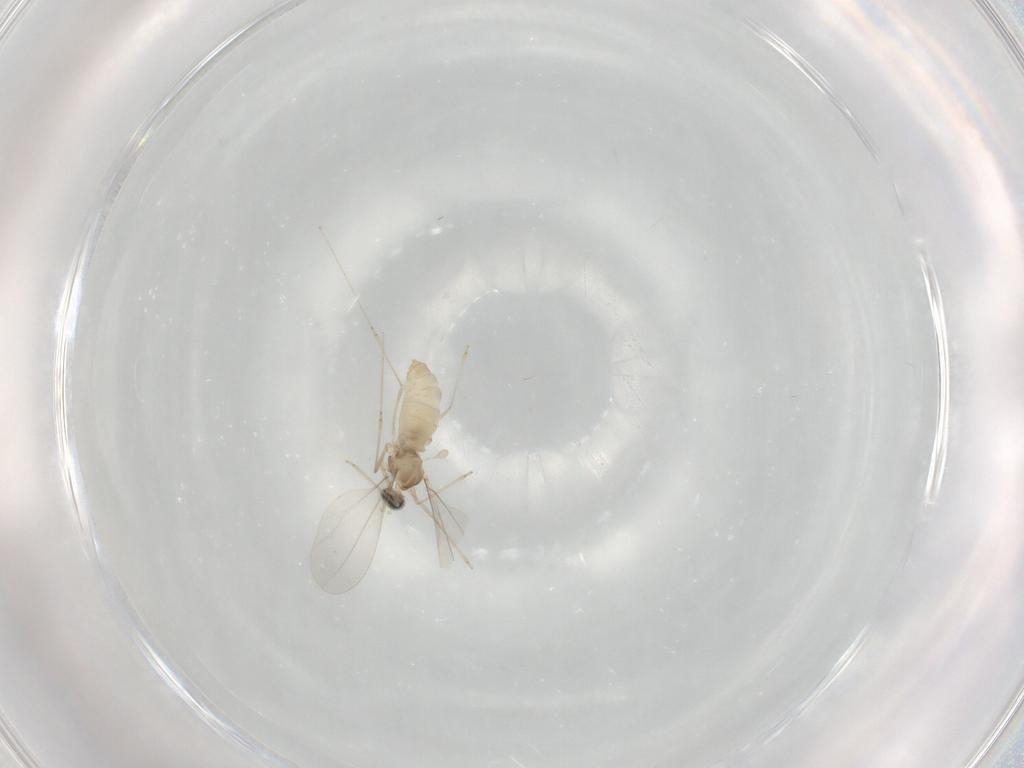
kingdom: Animalia
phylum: Arthropoda
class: Insecta
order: Diptera
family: Cecidomyiidae
